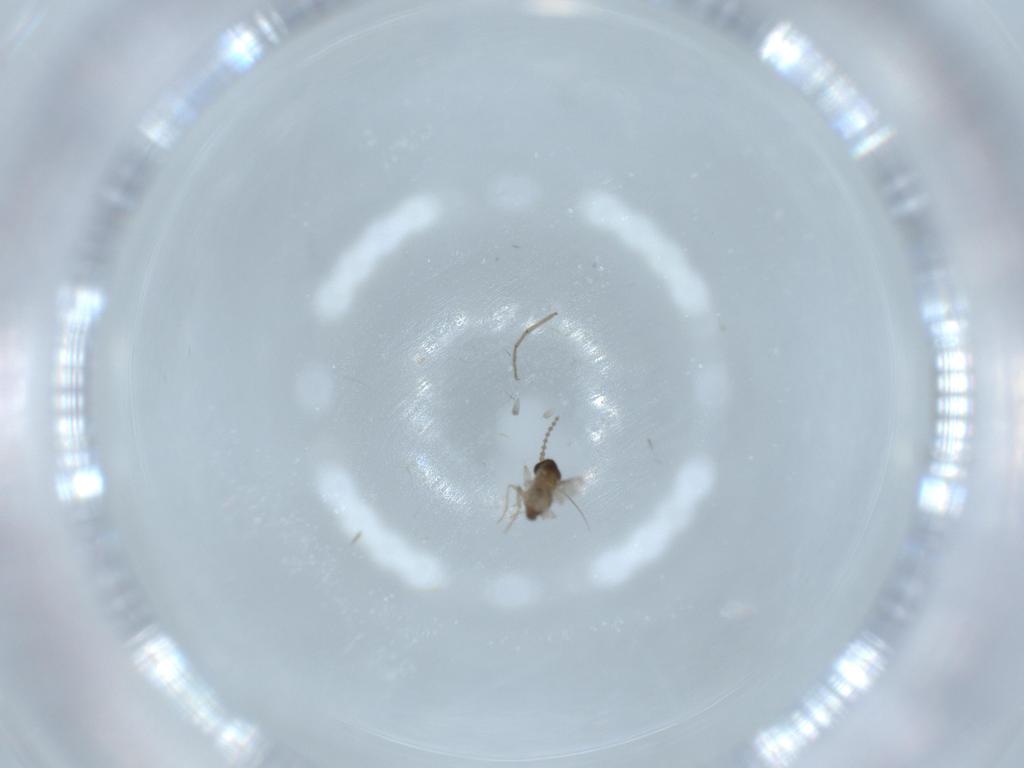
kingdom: Animalia
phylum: Arthropoda
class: Insecta
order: Diptera
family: Cecidomyiidae
